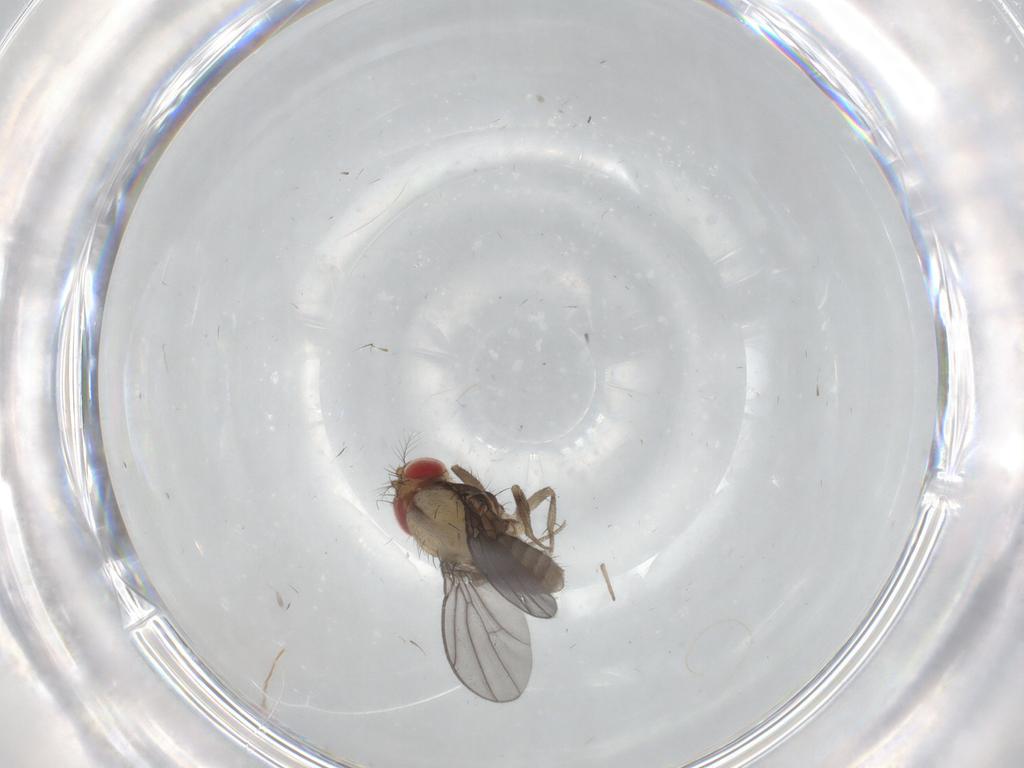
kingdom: Animalia
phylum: Arthropoda
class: Insecta
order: Diptera
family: Drosophilidae
